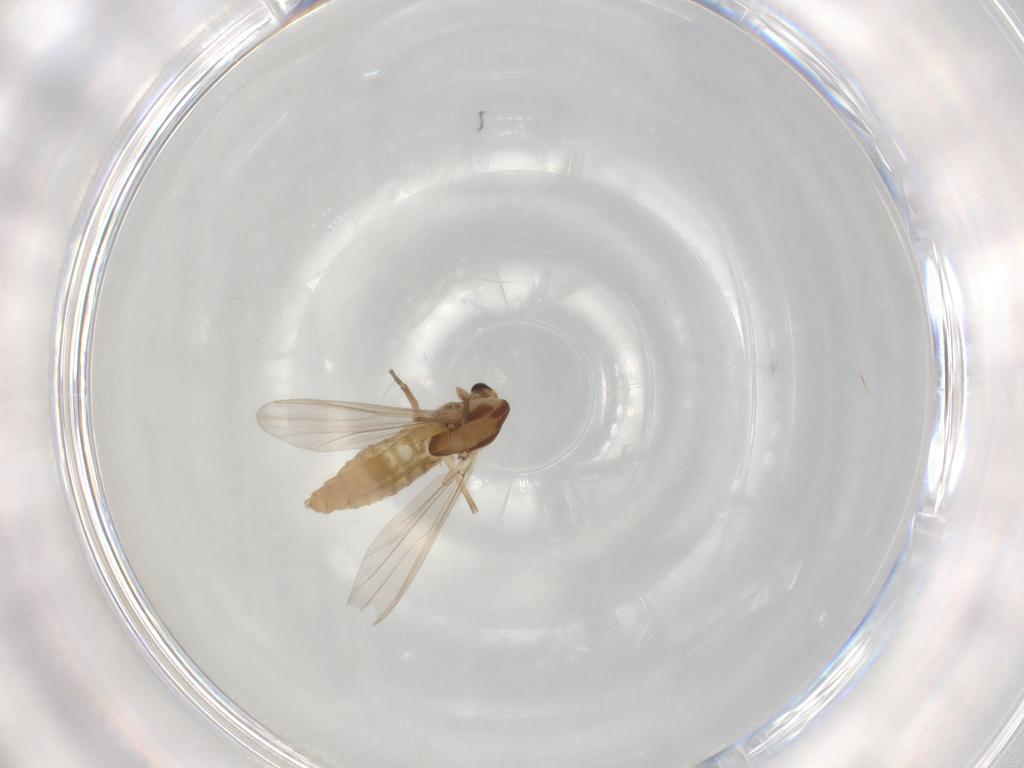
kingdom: Animalia
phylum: Arthropoda
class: Insecta
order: Diptera
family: Chironomidae
